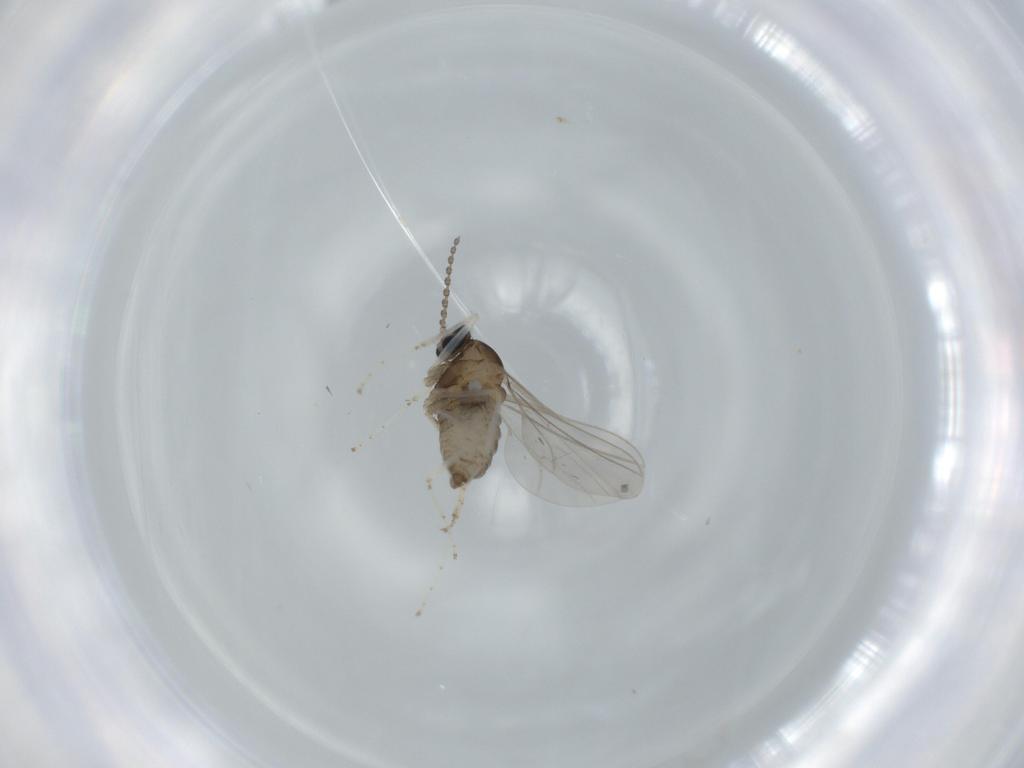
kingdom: Animalia
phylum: Arthropoda
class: Insecta
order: Diptera
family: Cecidomyiidae
